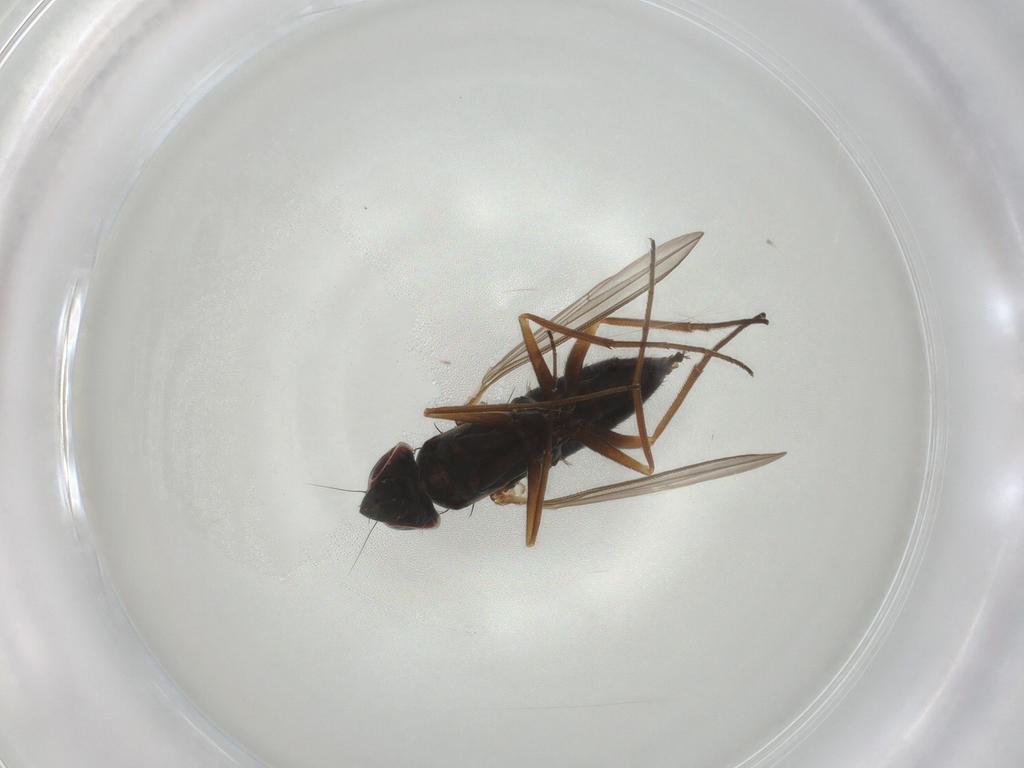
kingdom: Animalia
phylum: Arthropoda
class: Insecta
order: Diptera
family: Dolichopodidae
